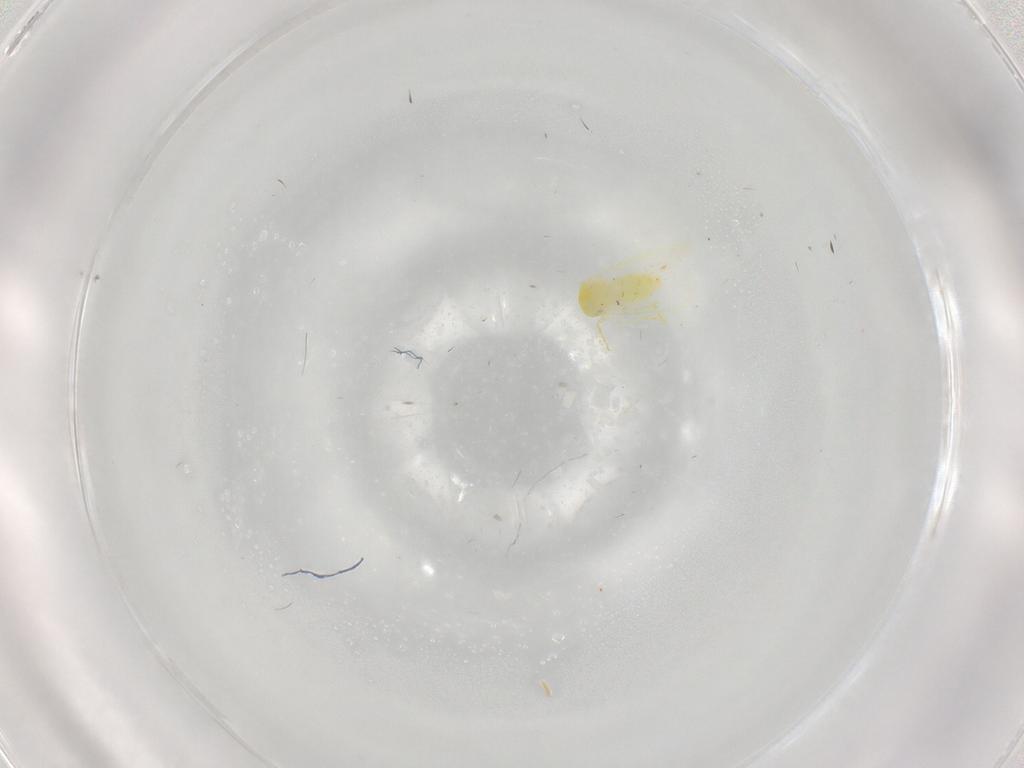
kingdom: Animalia
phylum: Arthropoda
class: Insecta
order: Hemiptera
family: Aleyrodidae
